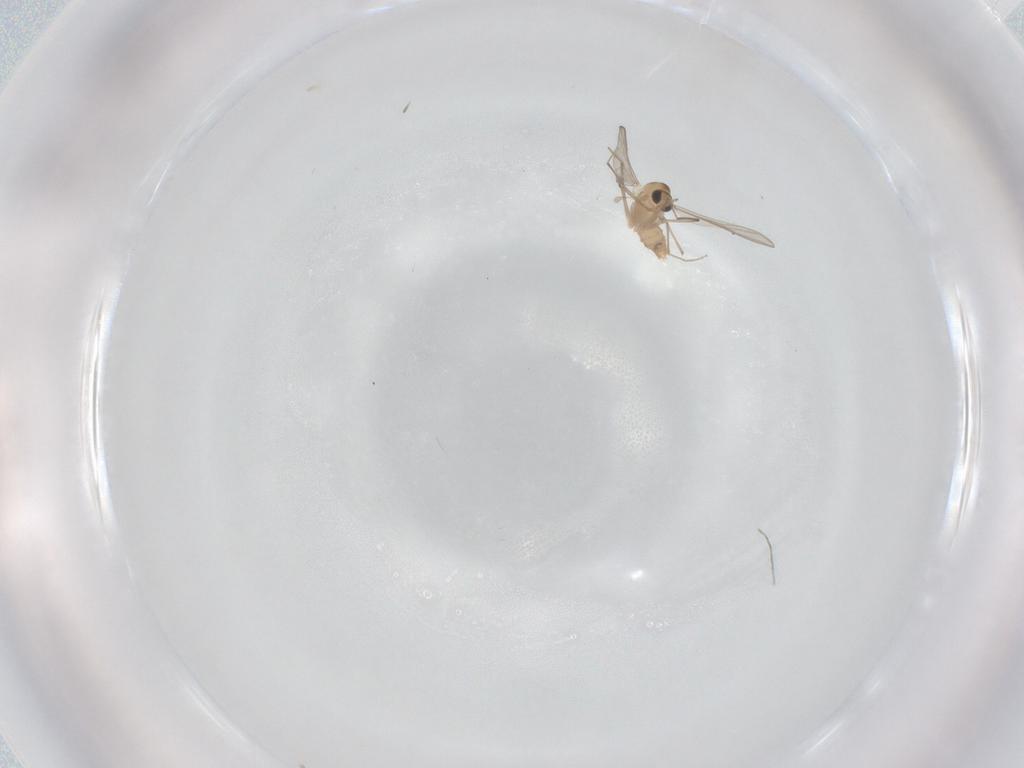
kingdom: Animalia
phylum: Arthropoda
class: Insecta
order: Diptera
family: Chironomidae
